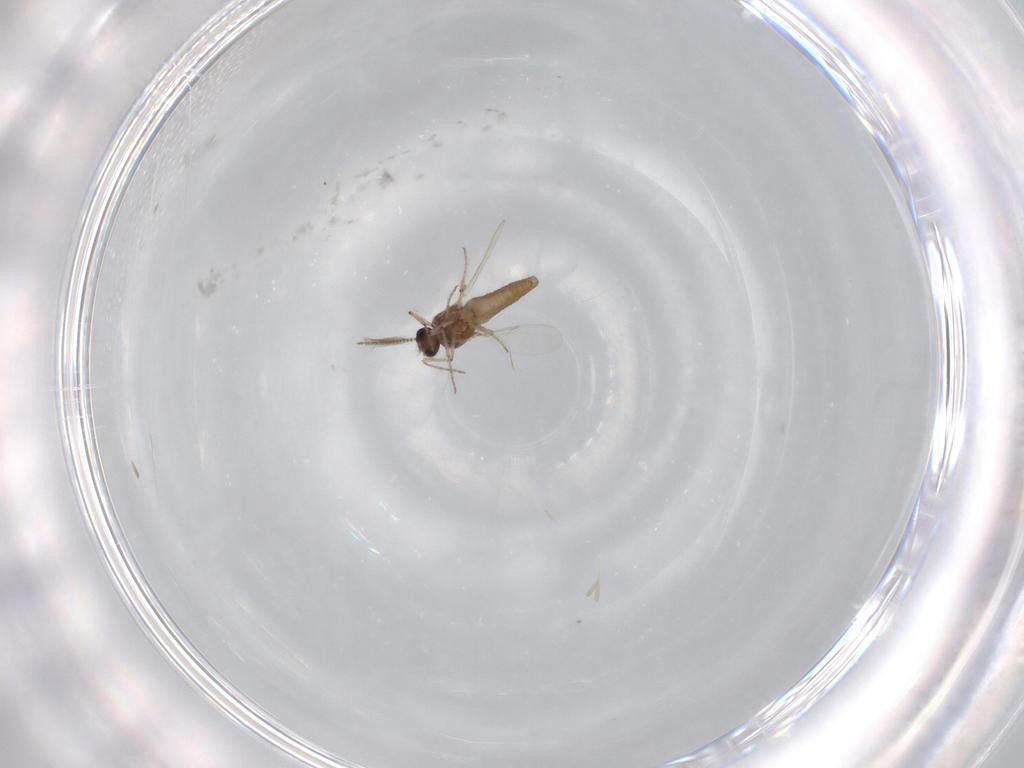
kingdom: Animalia
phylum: Arthropoda
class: Insecta
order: Diptera
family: Ceratopogonidae
